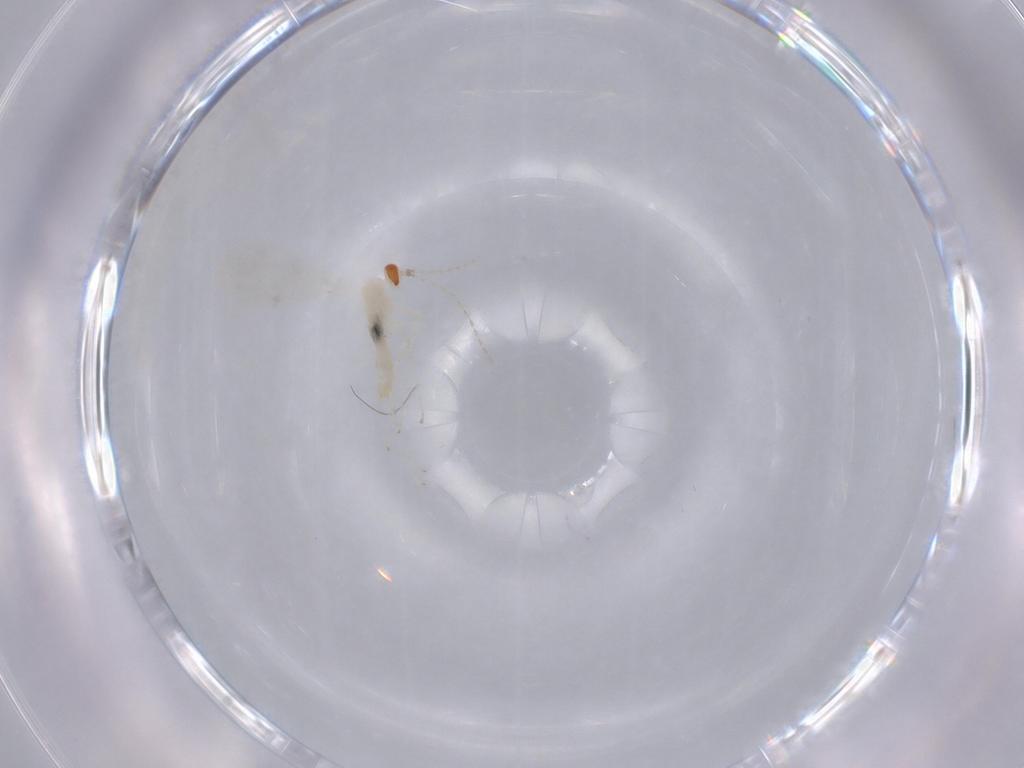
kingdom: Animalia
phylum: Arthropoda
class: Insecta
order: Diptera
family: Cecidomyiidae
